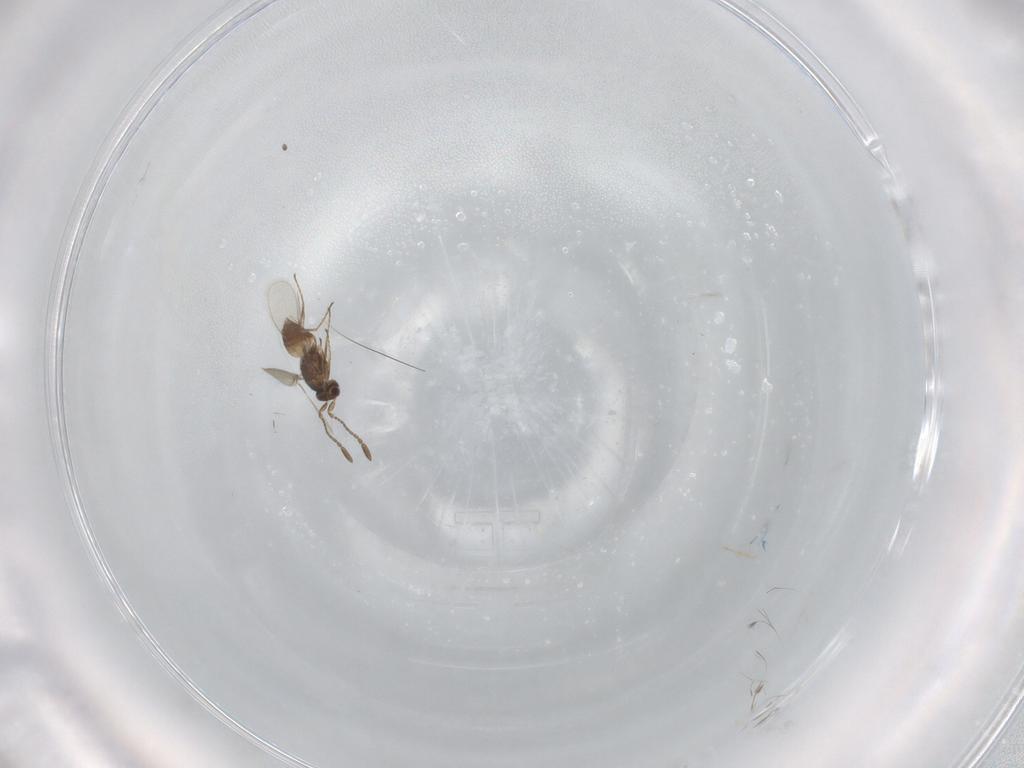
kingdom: Animalia
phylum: Arthropoda
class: Insecta
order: Hymenoptera
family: Mymaridae
